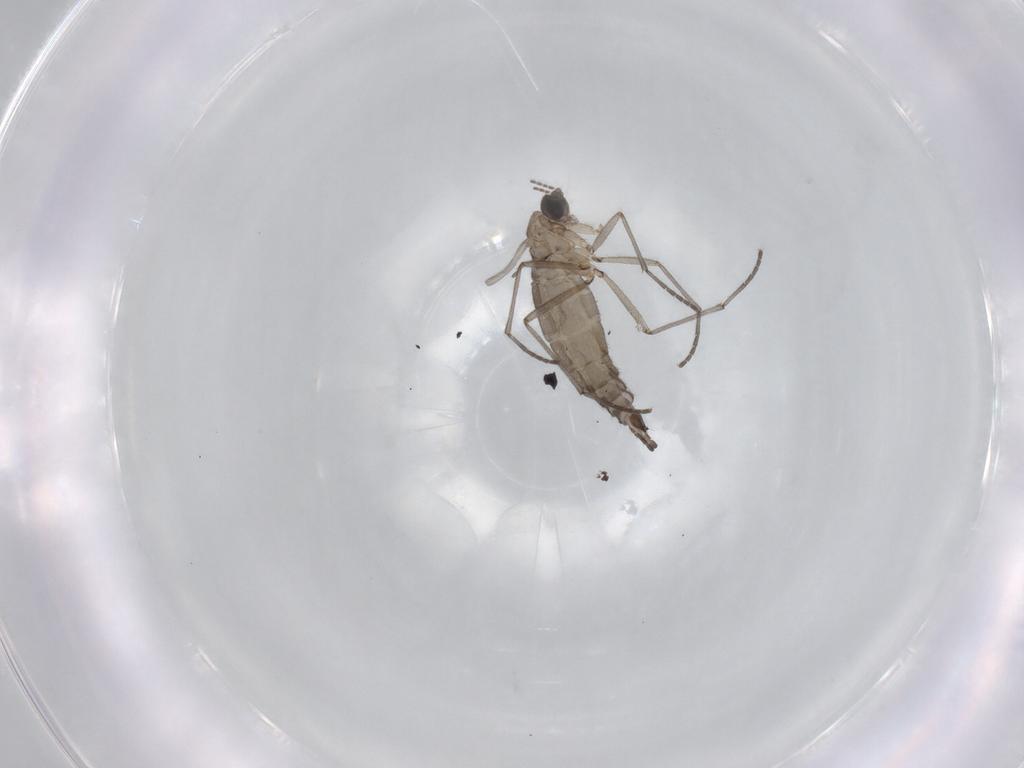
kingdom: Animalia
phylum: Arthropoda
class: Insecta
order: Diptera
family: Sciaridae
